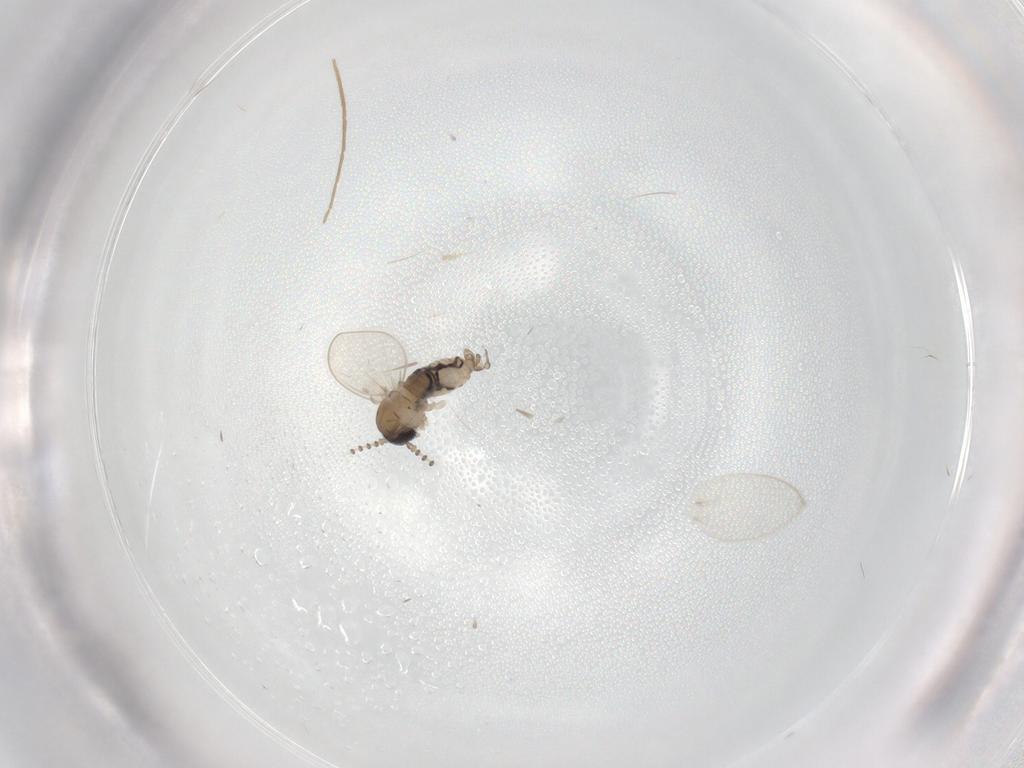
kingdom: Animalia
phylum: Arthropoda
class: Insecta
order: Diptera
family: Psychodidae
